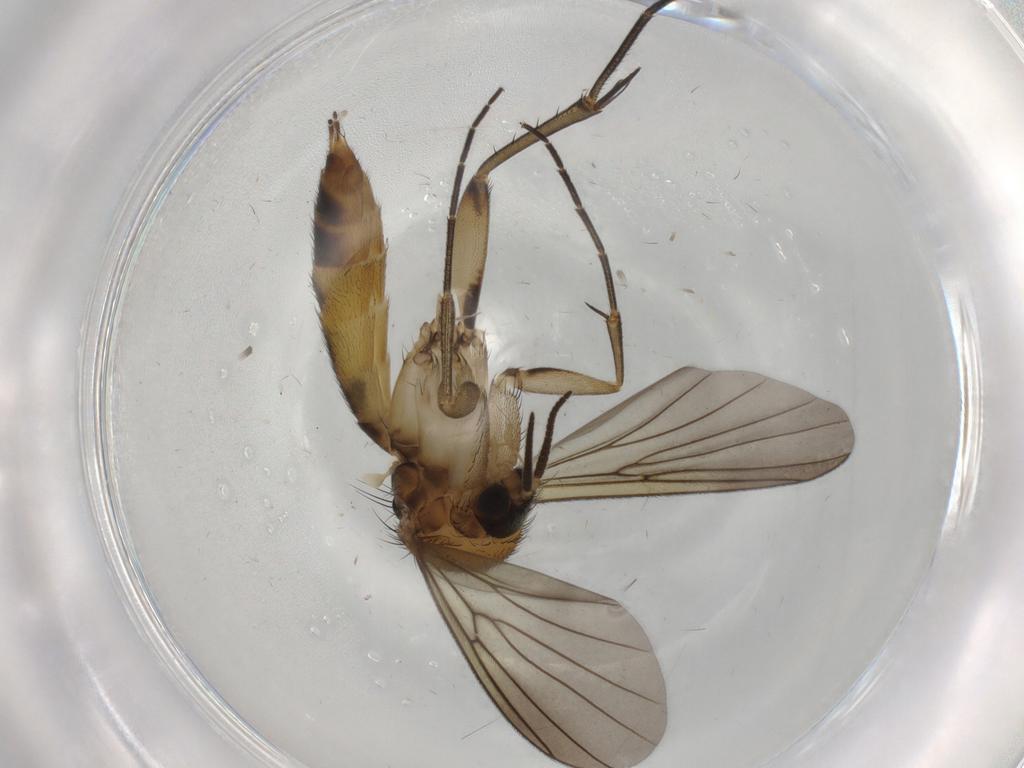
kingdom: Animalia
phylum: Arthropoda
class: Insecta
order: Diptera
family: Mycetophilidae
